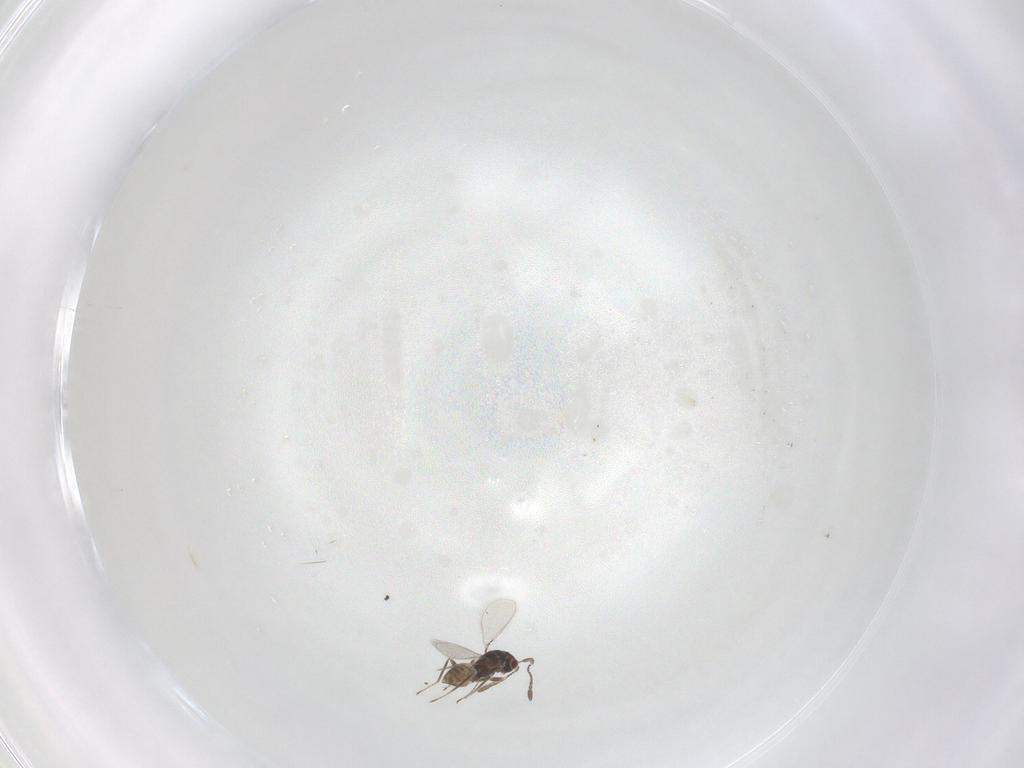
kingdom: Animalia
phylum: Arthropoda
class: Insecta
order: Hymenoptera
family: Mymaridae
